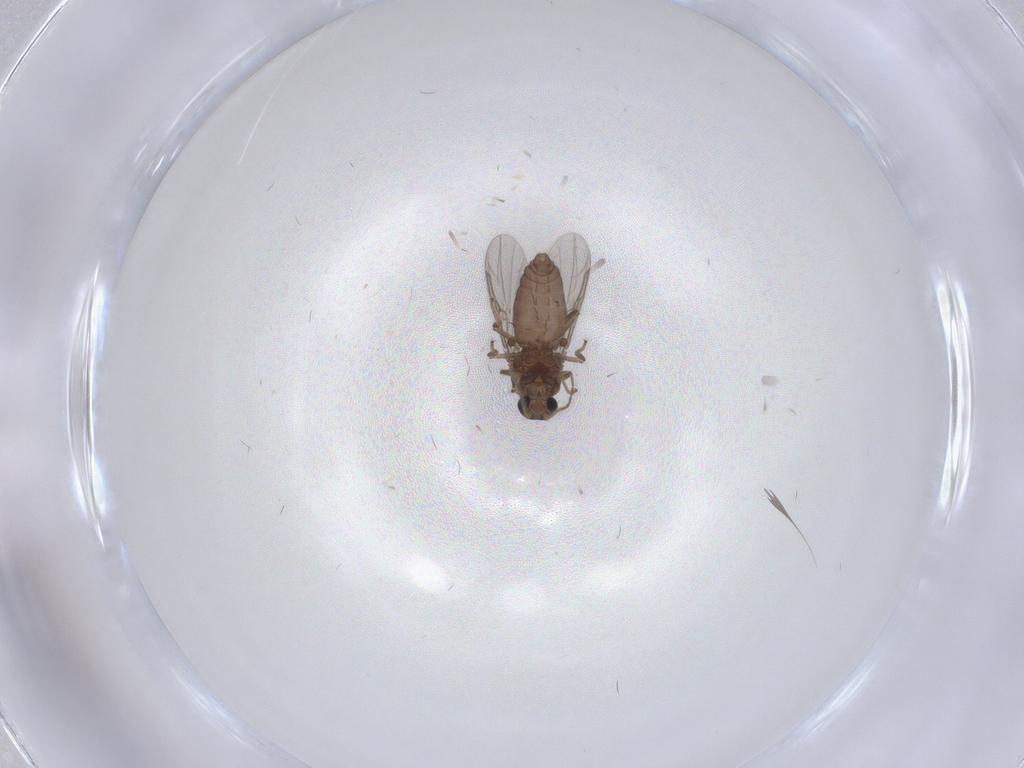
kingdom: Animalia
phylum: Arthropoda
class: Insecta
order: Diptera
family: Ceratopogonidae
